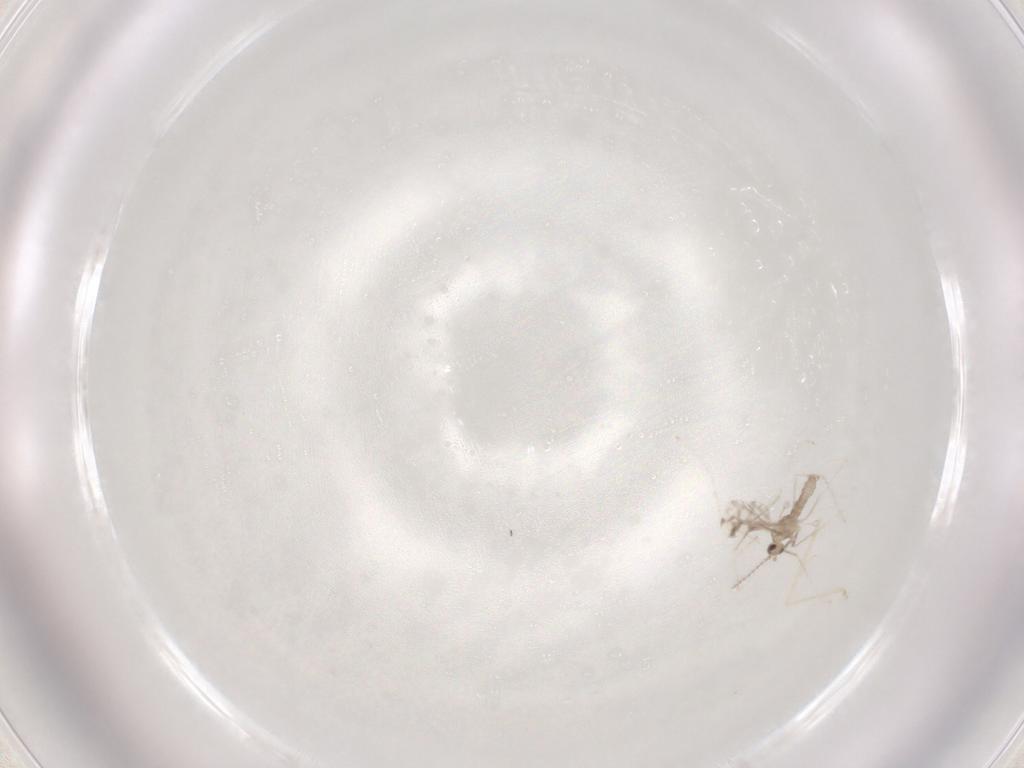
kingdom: Animalia
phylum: Arthropoda
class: Insecta
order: Diptera
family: Cecidomyiidae
